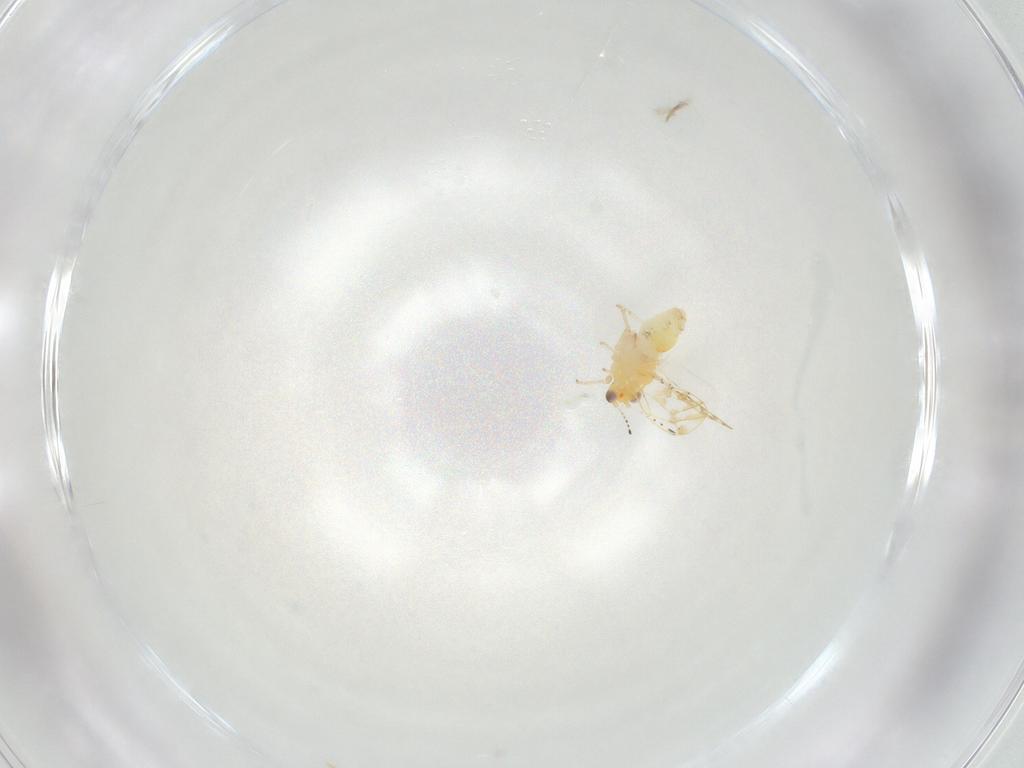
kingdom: Animalia
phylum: Arthropoda
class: Insecta
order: Hemiptera
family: Aphalaridae
